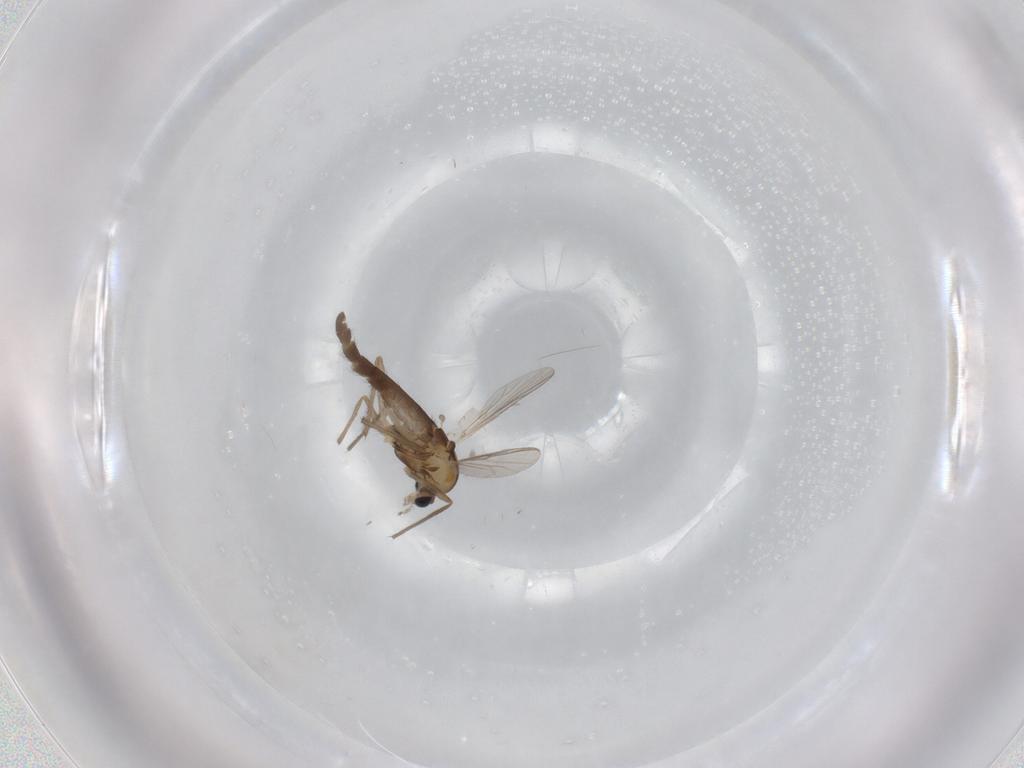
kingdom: Animalia
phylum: Arthropoda
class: Insecta
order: Diptera
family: Chironomidae
